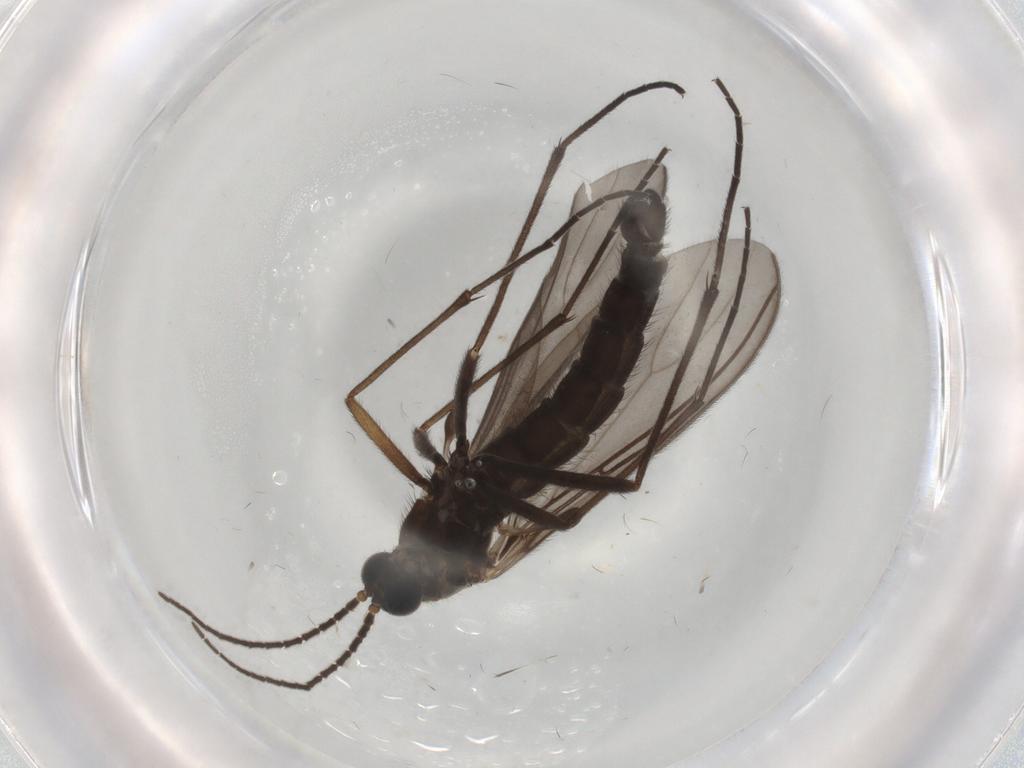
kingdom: Animalia
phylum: Arthropoda
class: Insecta
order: Diptera
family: Sciaridae
